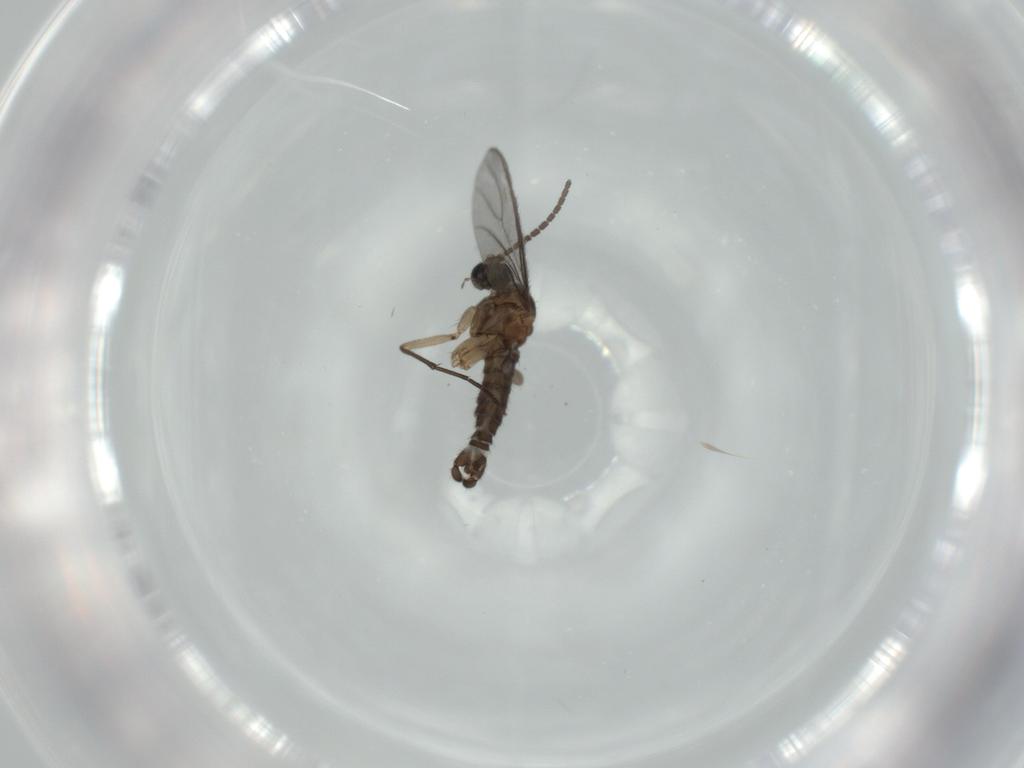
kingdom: Animalia
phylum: Arthropoda
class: Insecta
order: Diptera
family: Sciaridae
